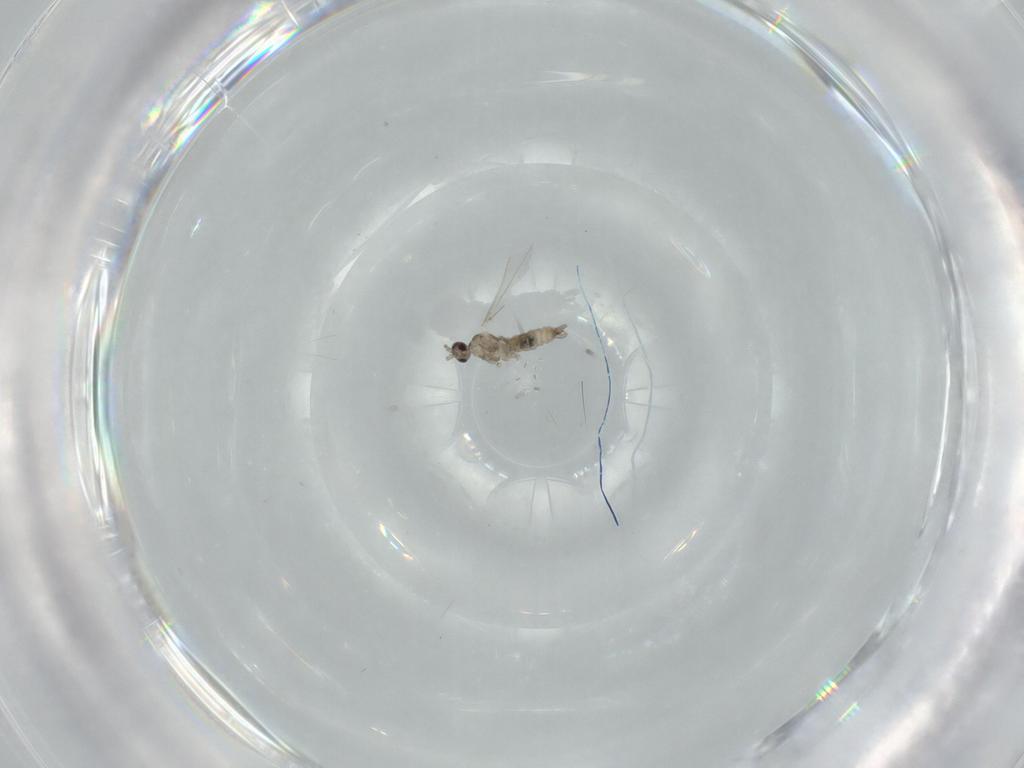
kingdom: Animalia
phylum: Arthropoda
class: Insecta
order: Diptera
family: Cecidomyiidae
